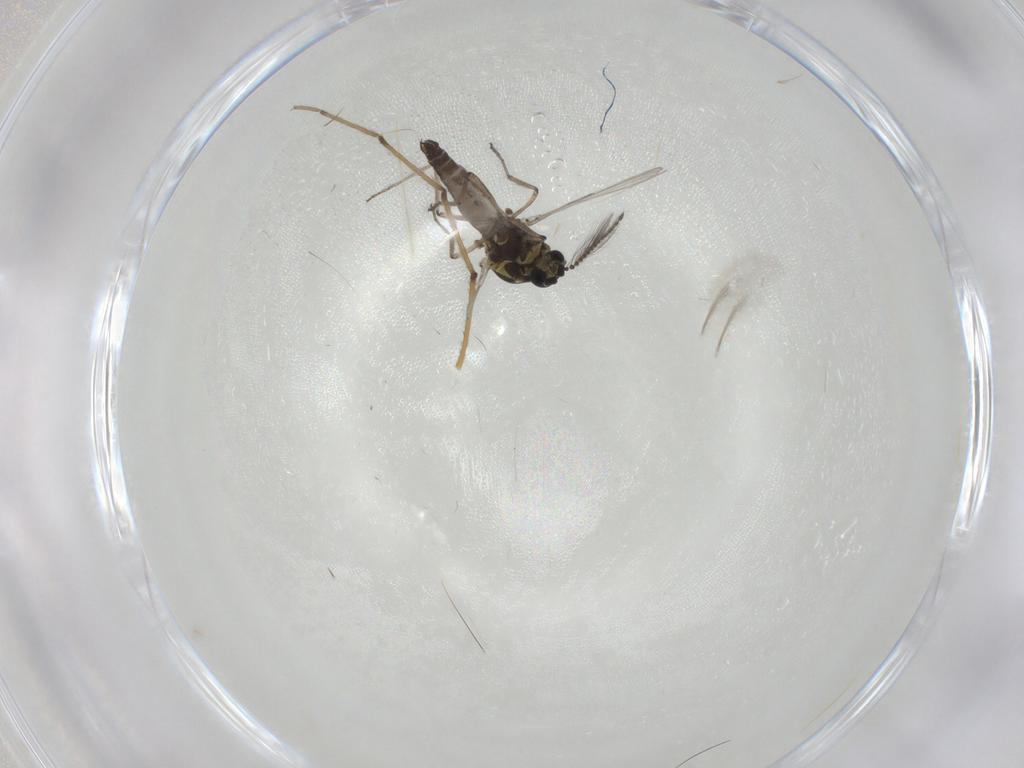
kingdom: Animalia
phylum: Arthropoda
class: Insecta
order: Diptera
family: Ceratopogonidae
